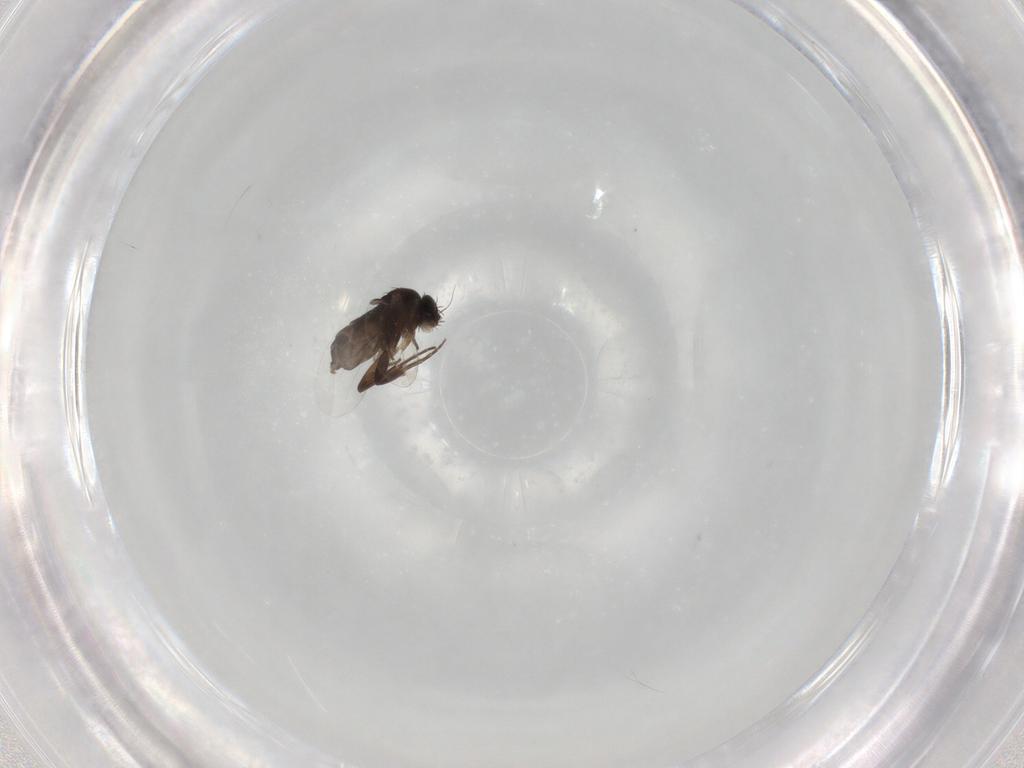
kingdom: Animalia
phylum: Arthropoda
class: Insecta
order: Diptera
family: Phoridae
